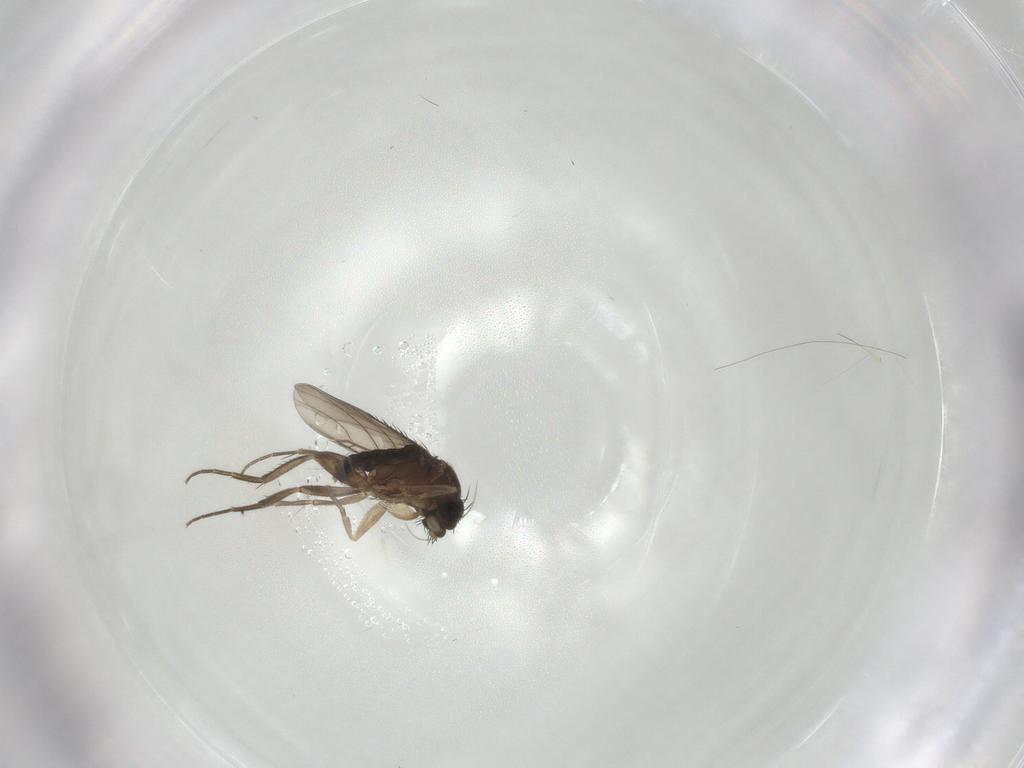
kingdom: Animalia
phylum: Arthropoda
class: Insecta
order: Diptera
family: Phoridae
